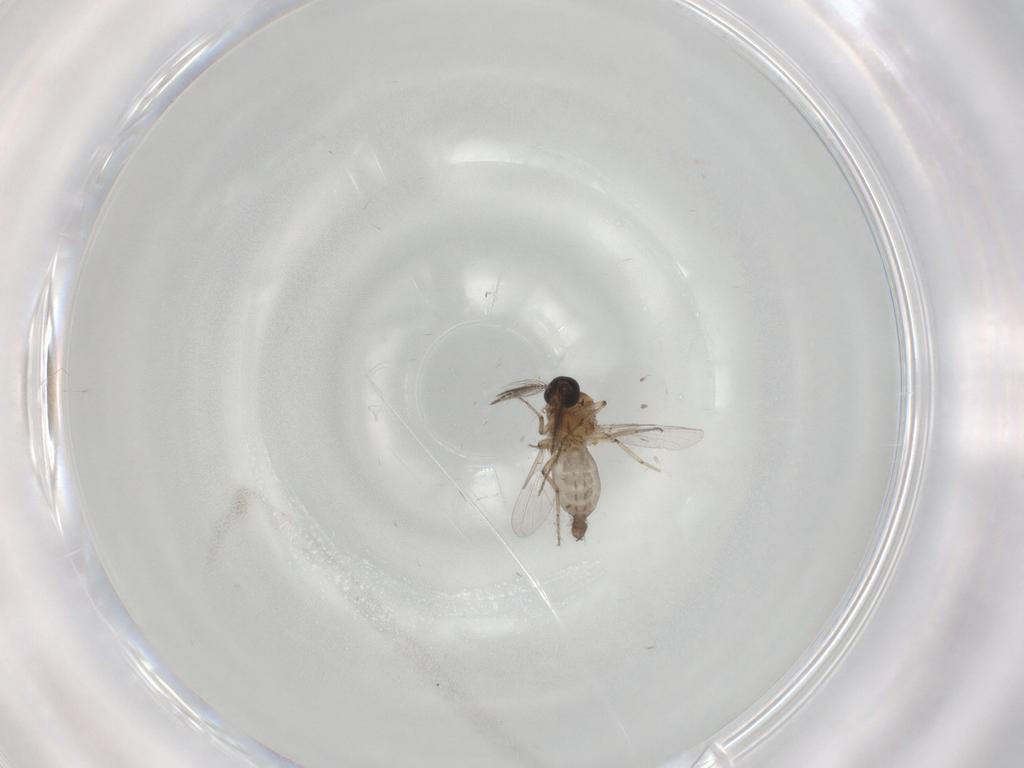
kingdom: Animalia
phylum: Arthropoda
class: Insecta
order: Diptera
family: Ceratopogonidae
